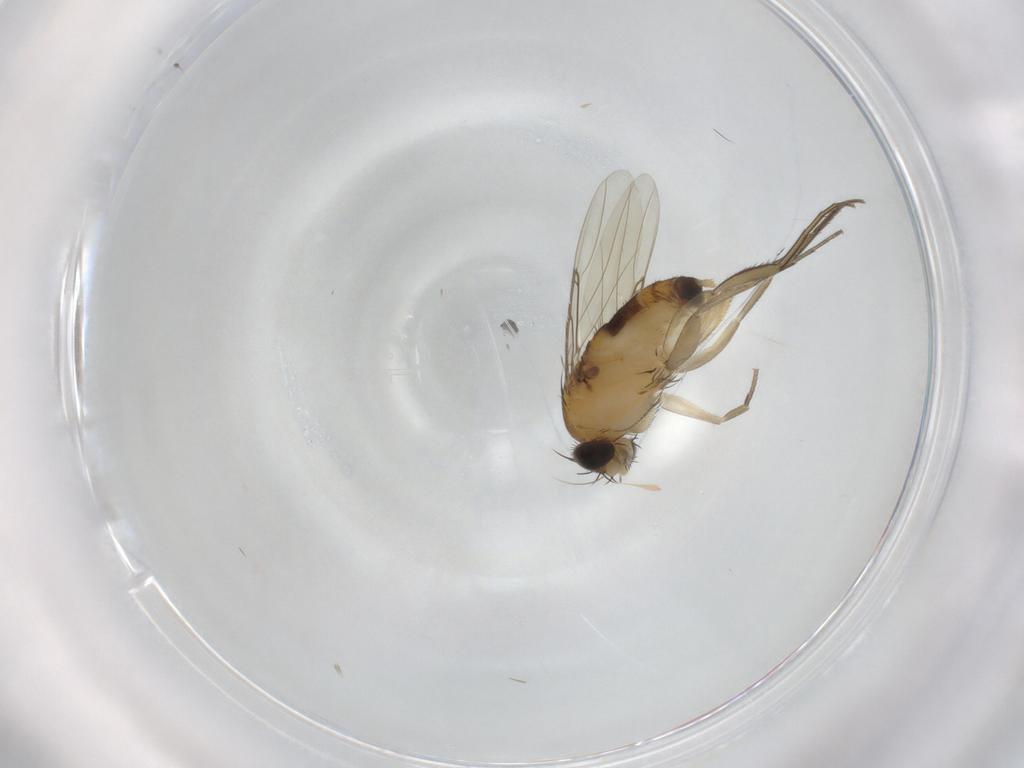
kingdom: Animalia
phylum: Arthropoda
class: Insecta
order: Diptera
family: Phoridae
